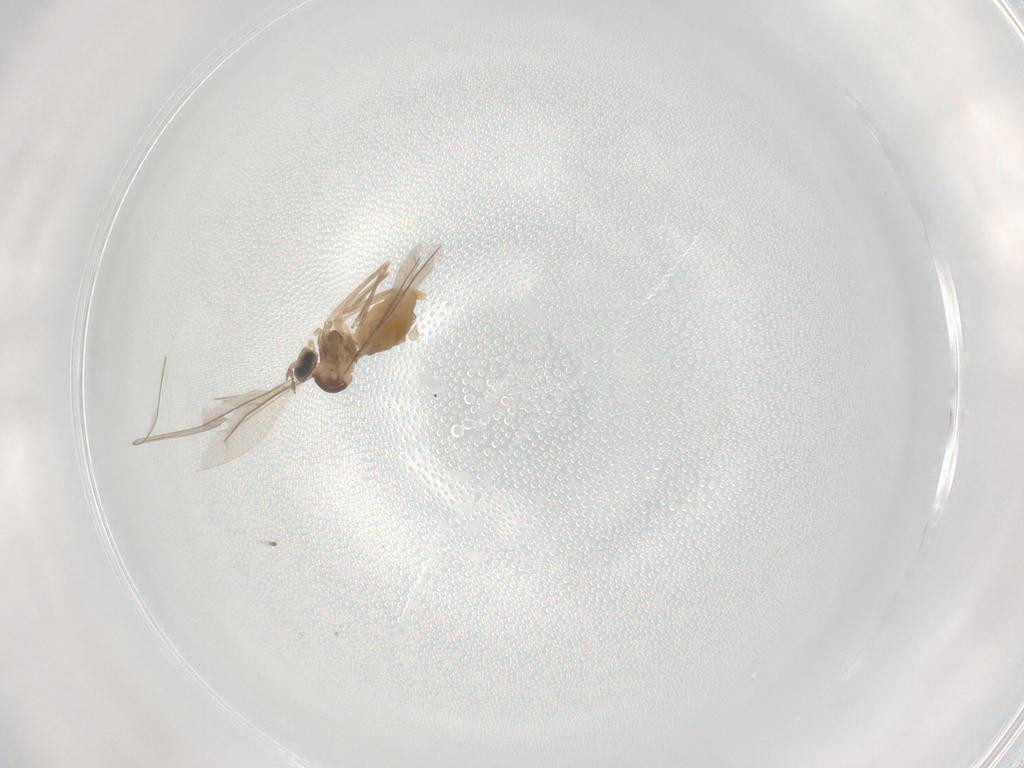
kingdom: Animalia
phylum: Arthropoda
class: Insecta
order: Diptera
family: Cecidomyiidae
